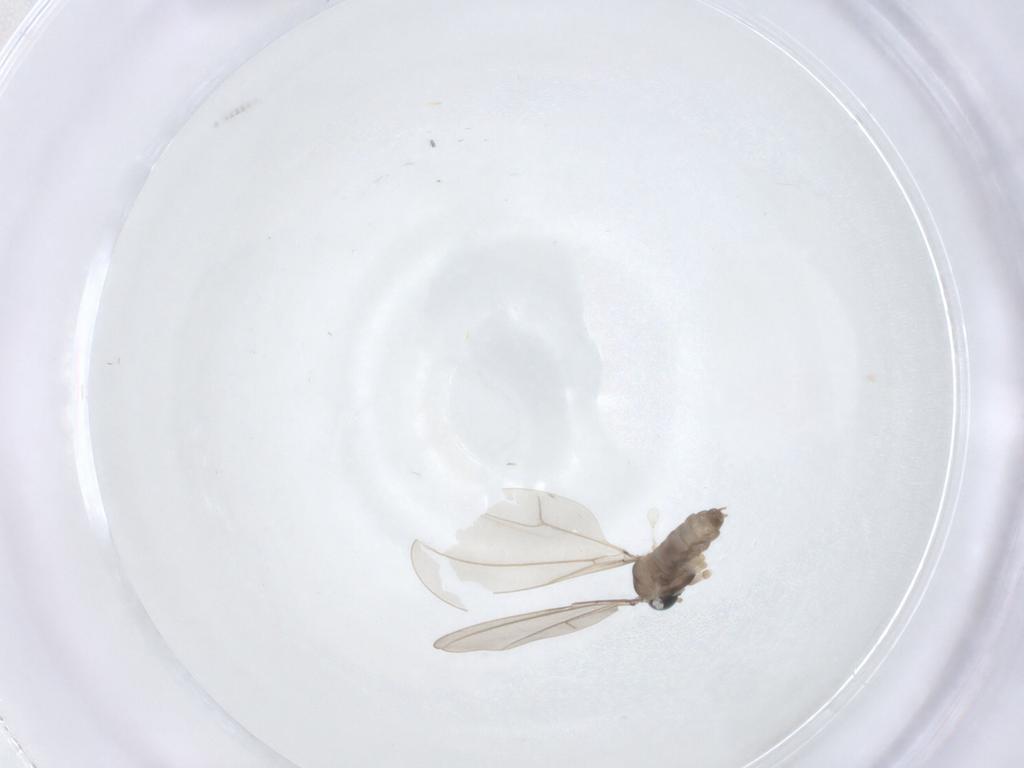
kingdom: Animalia
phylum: Arthropoda
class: Insecta
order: Diptera
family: Cecidomyiidae
